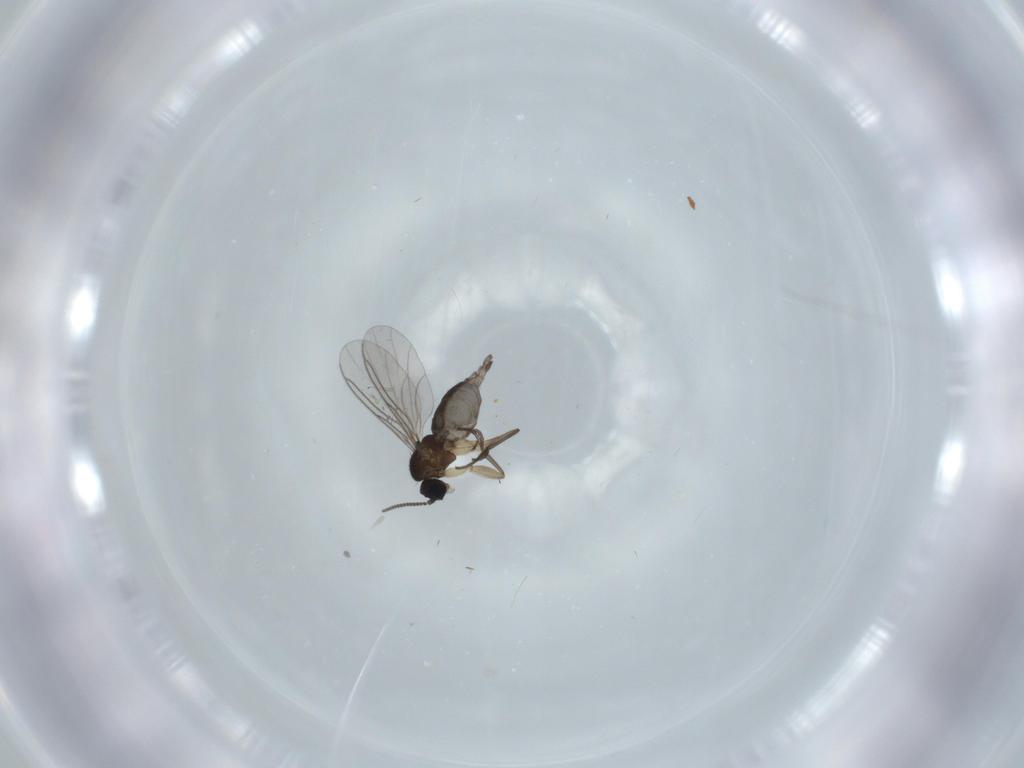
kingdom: Animalia
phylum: Arthropoda
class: Insecta
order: Diptera
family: Sciaridae
